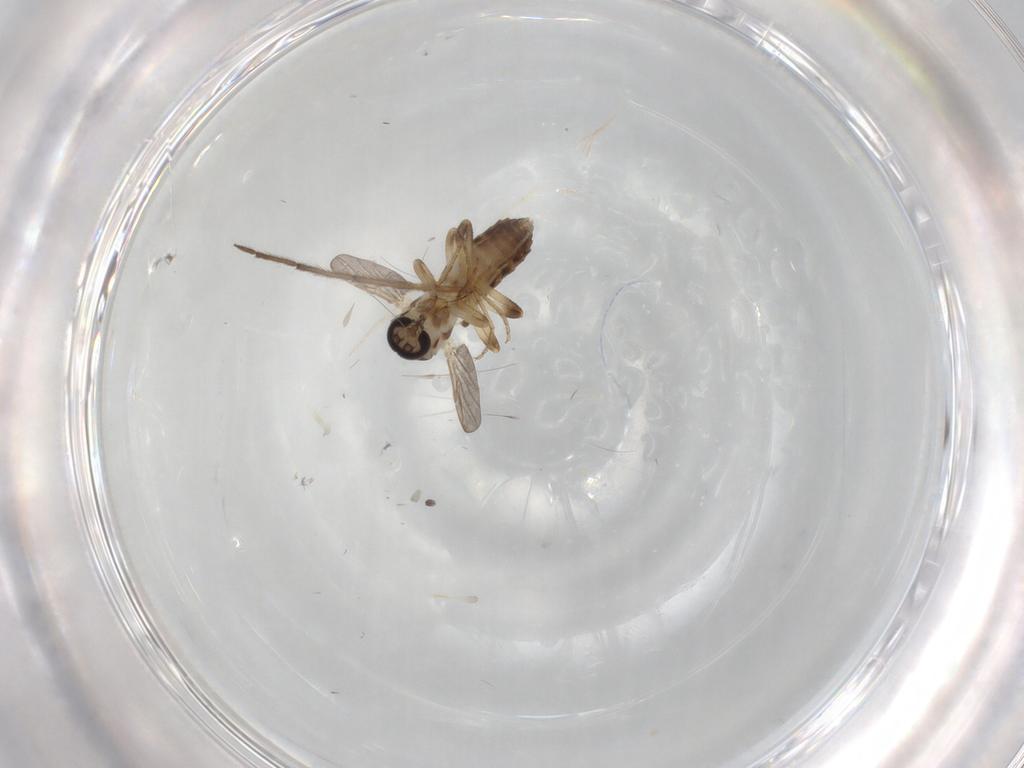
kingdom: Animalia
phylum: Arthropoda
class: Insecta
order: Diptera
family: Ceratopogonidae
